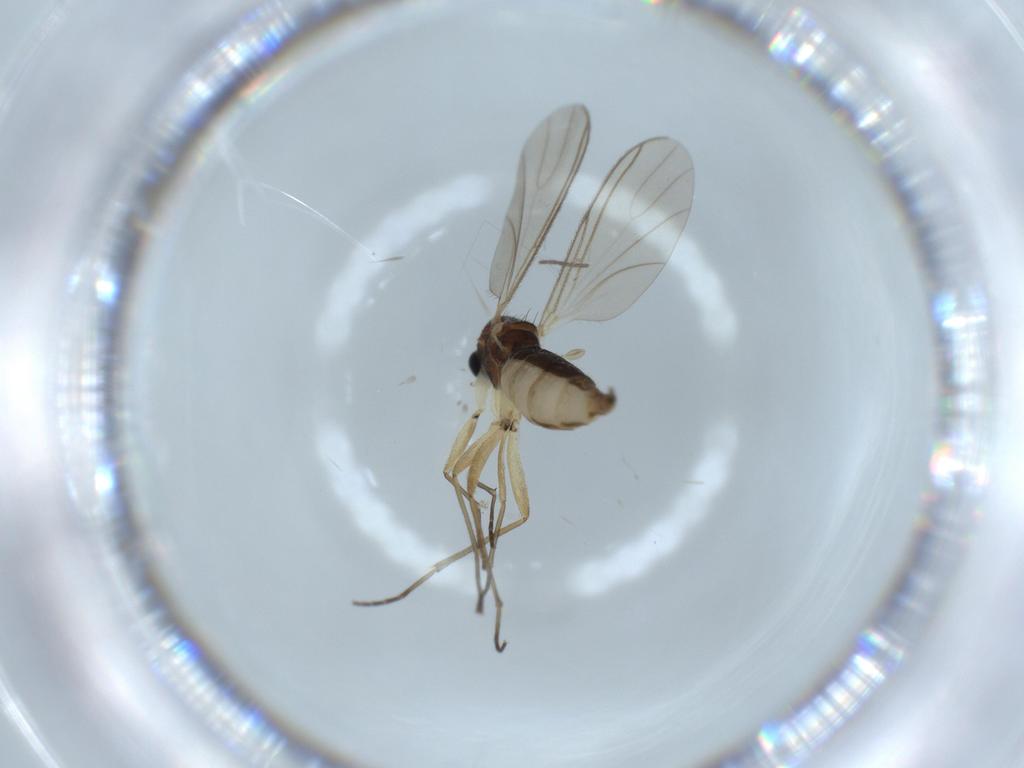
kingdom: Animalia
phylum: Arthropoda
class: Insecta
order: Diptera
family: Sciaridae
